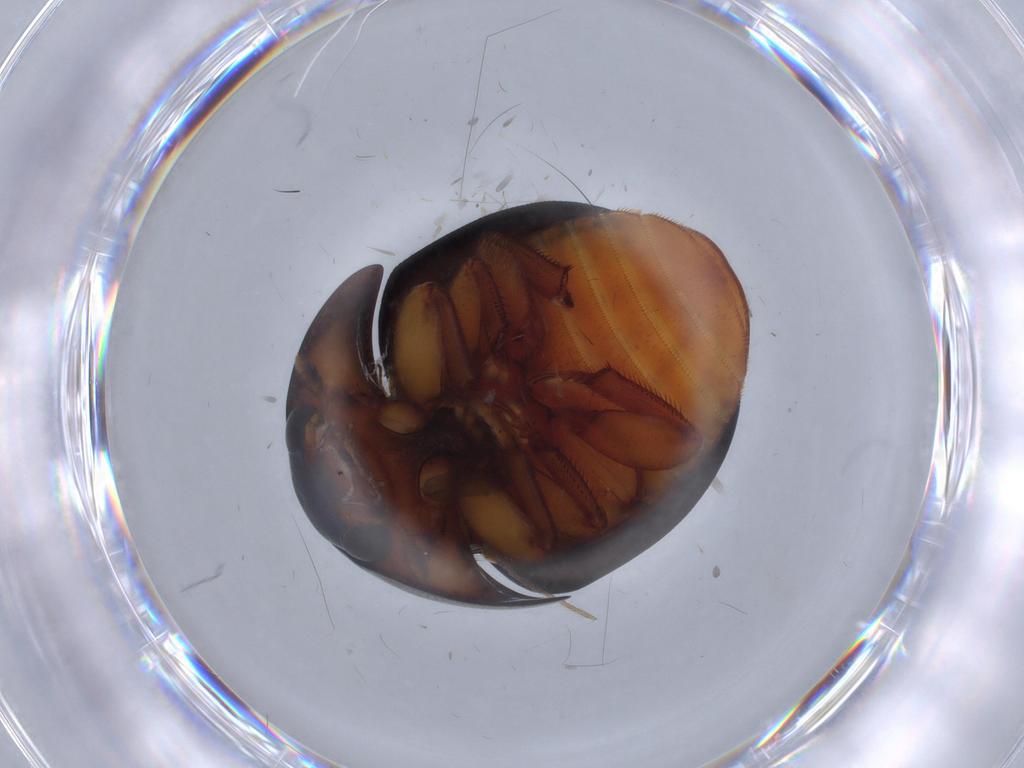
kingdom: Animalia
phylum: Arthropoda
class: Insecta
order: Coleoptera
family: Nitidulidae
